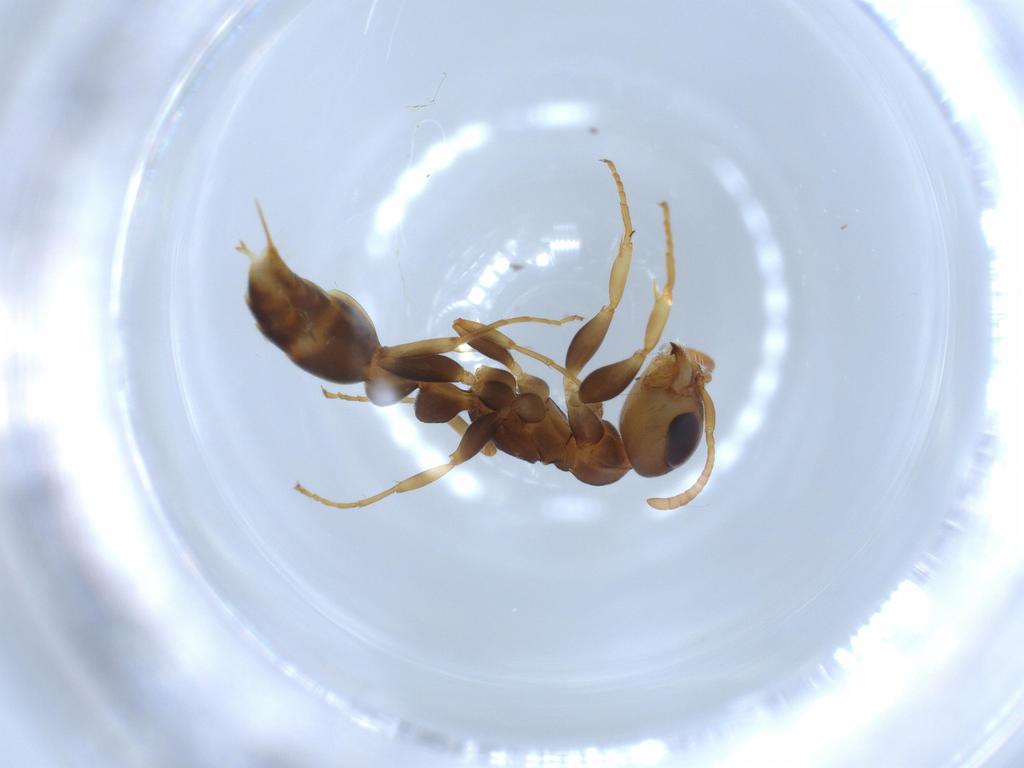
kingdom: Animalia
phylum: Arthropoda
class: Insecta
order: Hymenoptera
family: Formicidae
